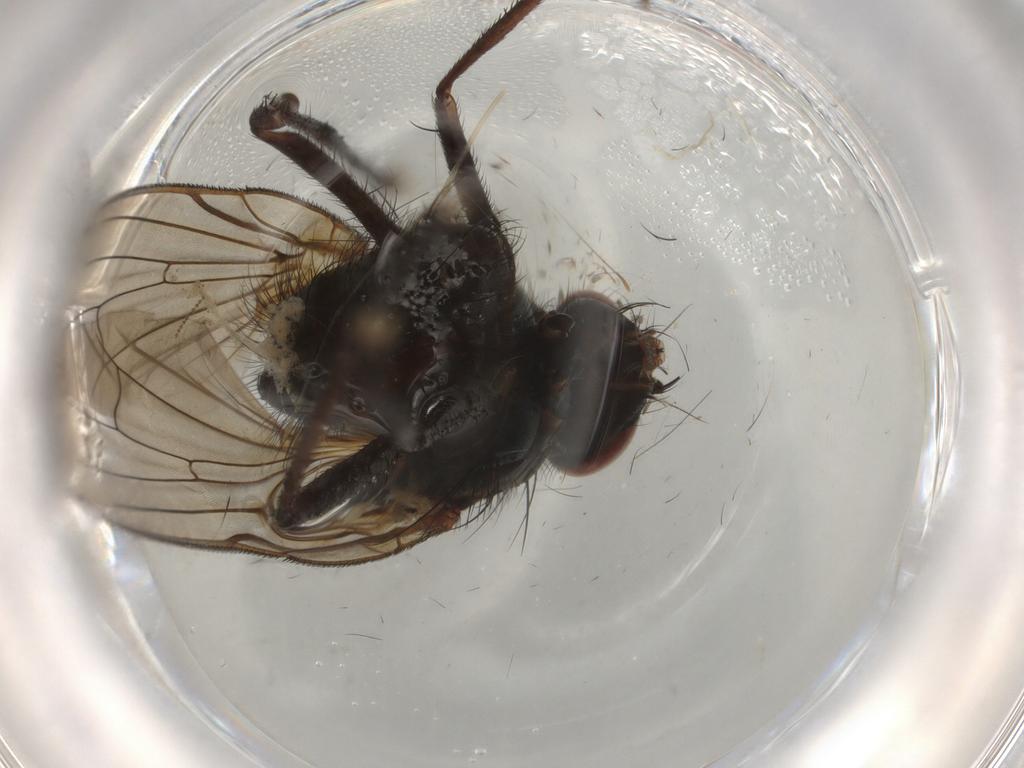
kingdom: Animalia
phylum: Arthropoda
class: Insecta
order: Diptera
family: Anthomyiidae
